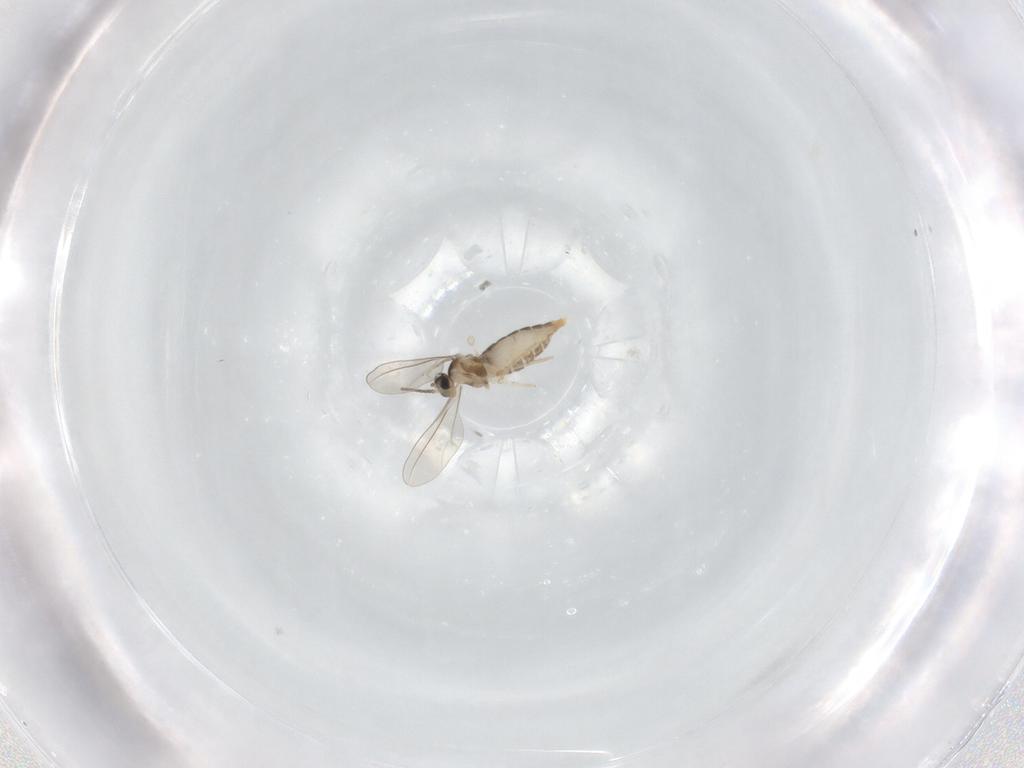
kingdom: Animalia
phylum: Arthropoda
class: Insecta
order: Diptera
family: Cecidomyiidae
